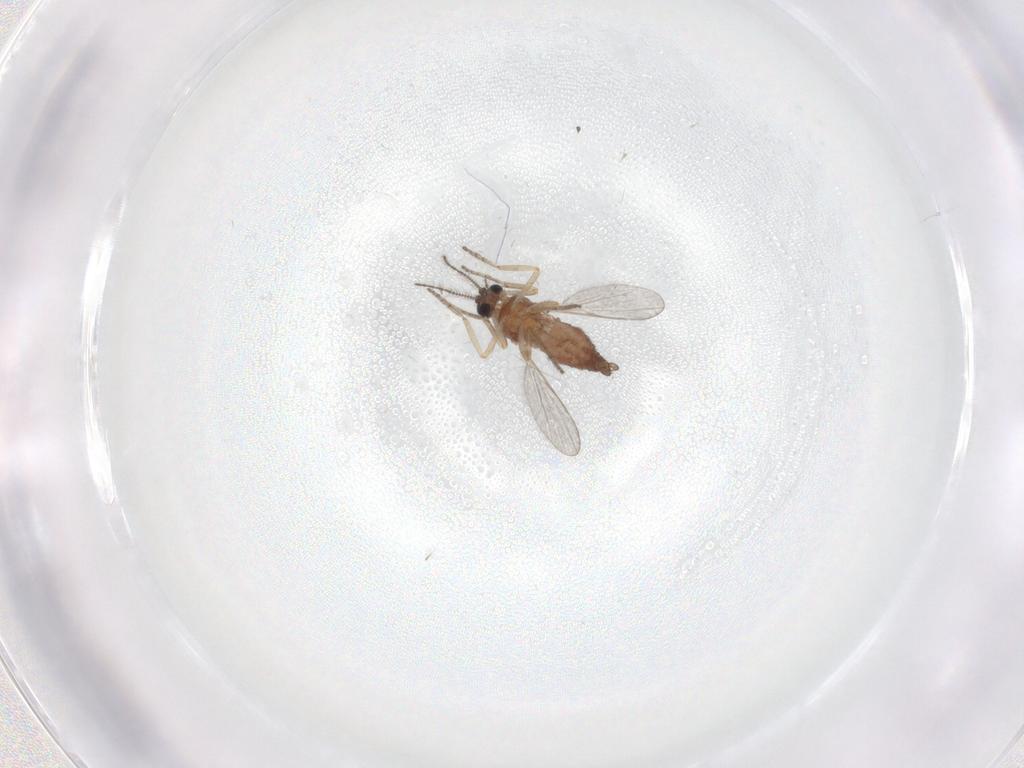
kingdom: Animalia
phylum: Arthropoda
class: Insecta
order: Diptera
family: Ceratopogonidae
